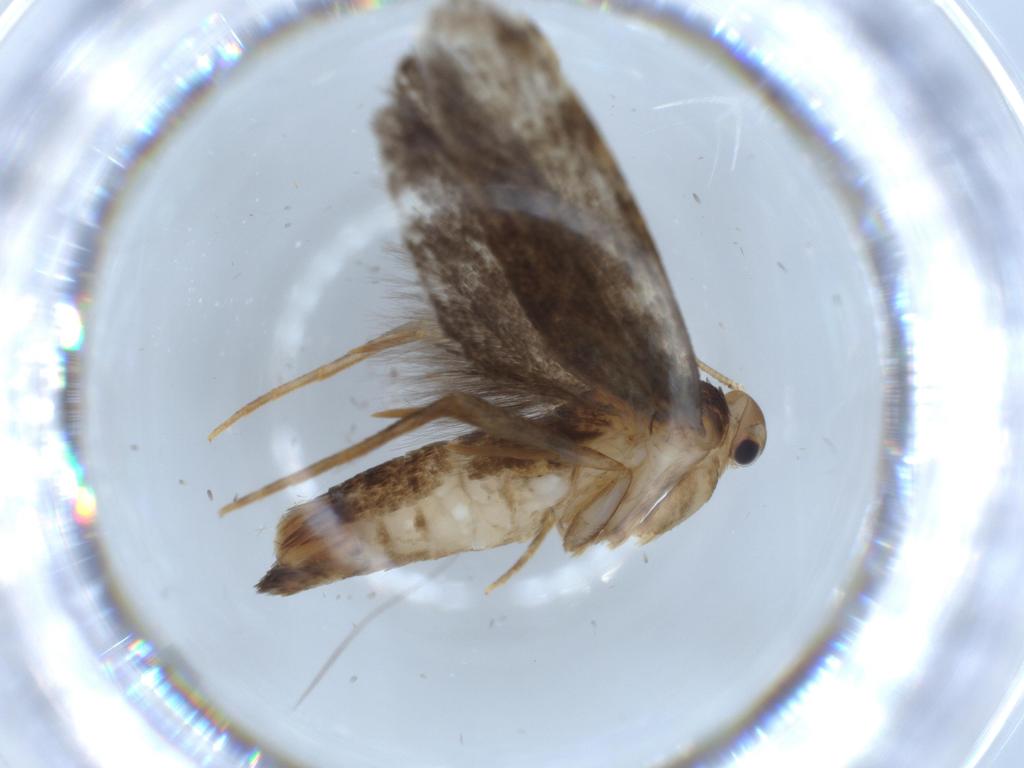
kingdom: Animalia
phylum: Arthropoda
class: Insecta
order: Lepidoptera
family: Tineidae
